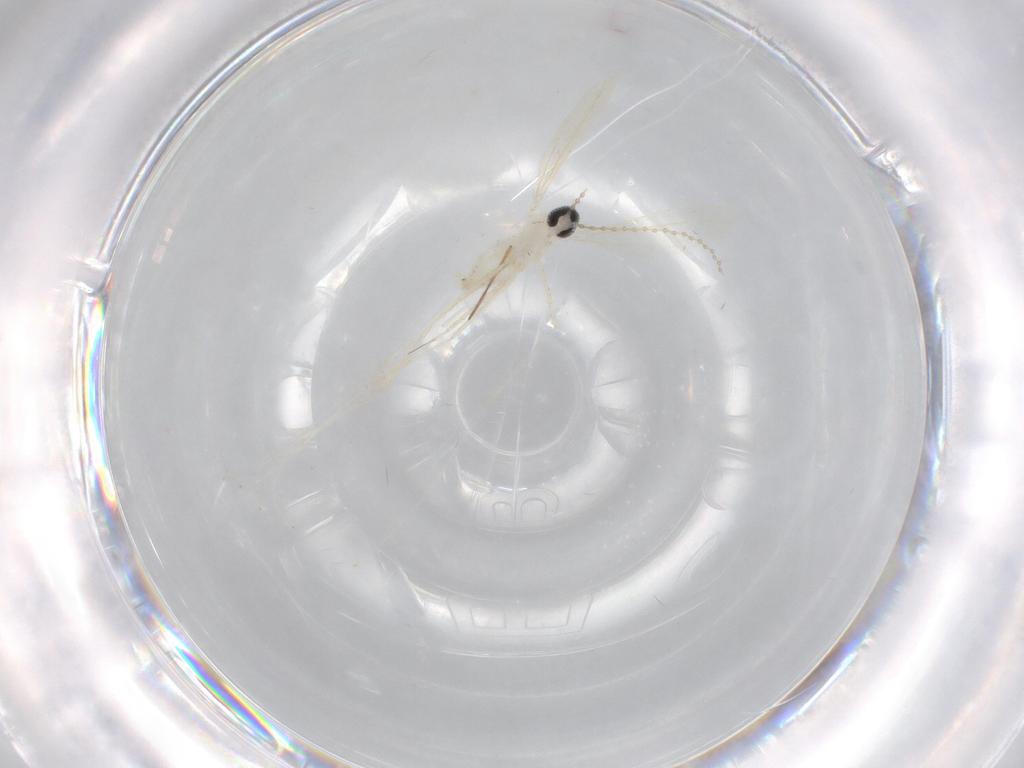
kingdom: Animalia
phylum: Arthropoda
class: Insecta
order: Diptera
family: Cecidomyiidae
